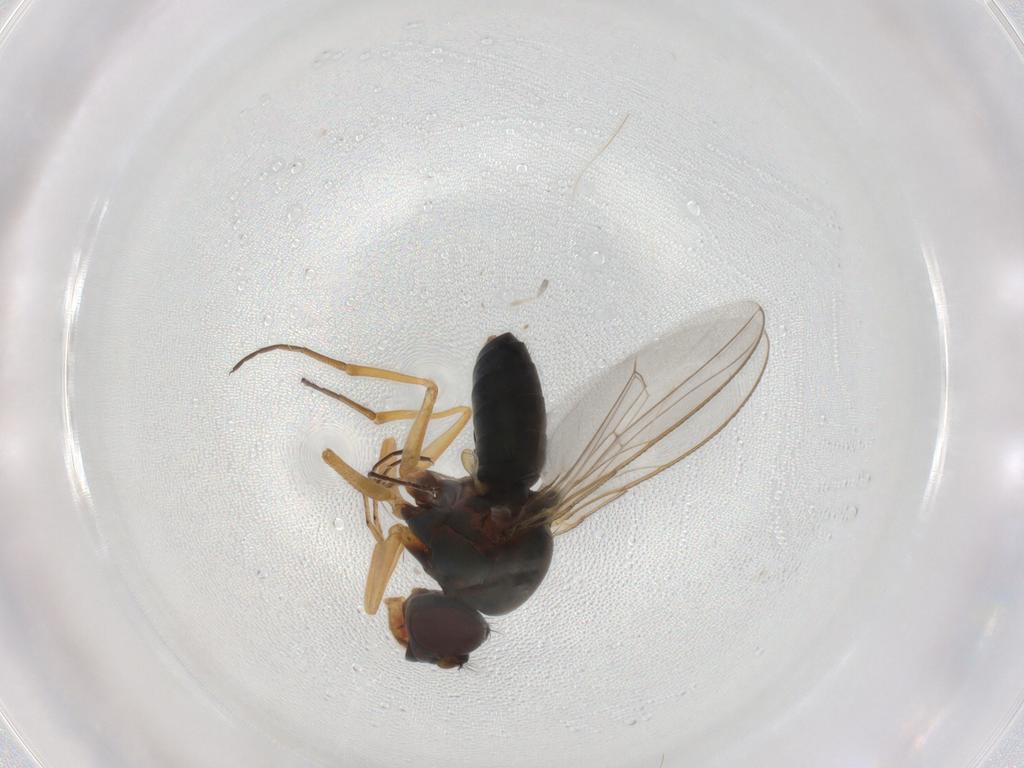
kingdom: Animalia
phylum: Arthropoda
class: Insecta
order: Diptera
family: Ephydridae
